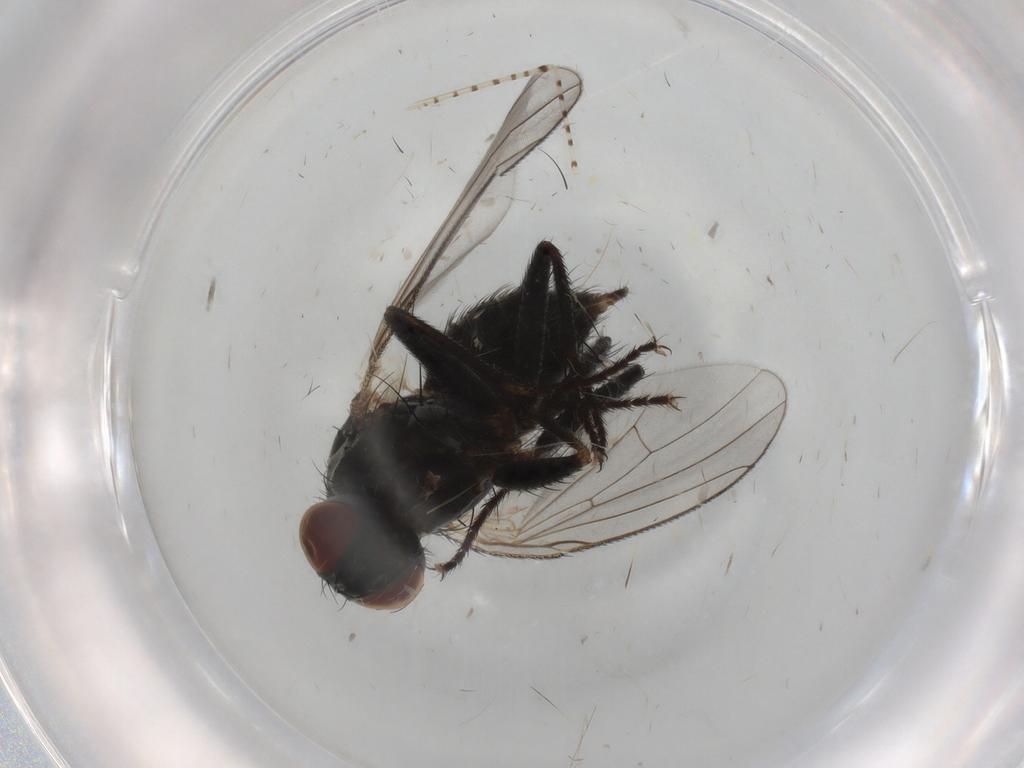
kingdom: Animalia
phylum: Arthropoda
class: Insecta
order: Diptera
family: Muscidae
